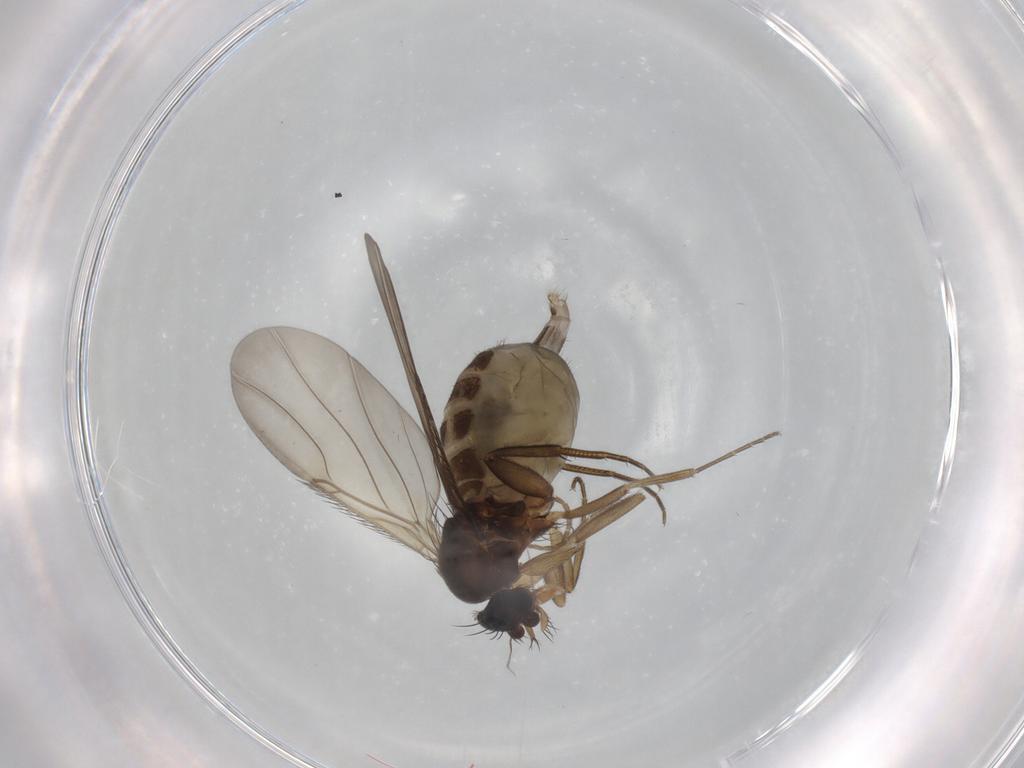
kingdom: Animalia
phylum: Arthropoda
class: Insecta
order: Diptera
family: Phoridae
